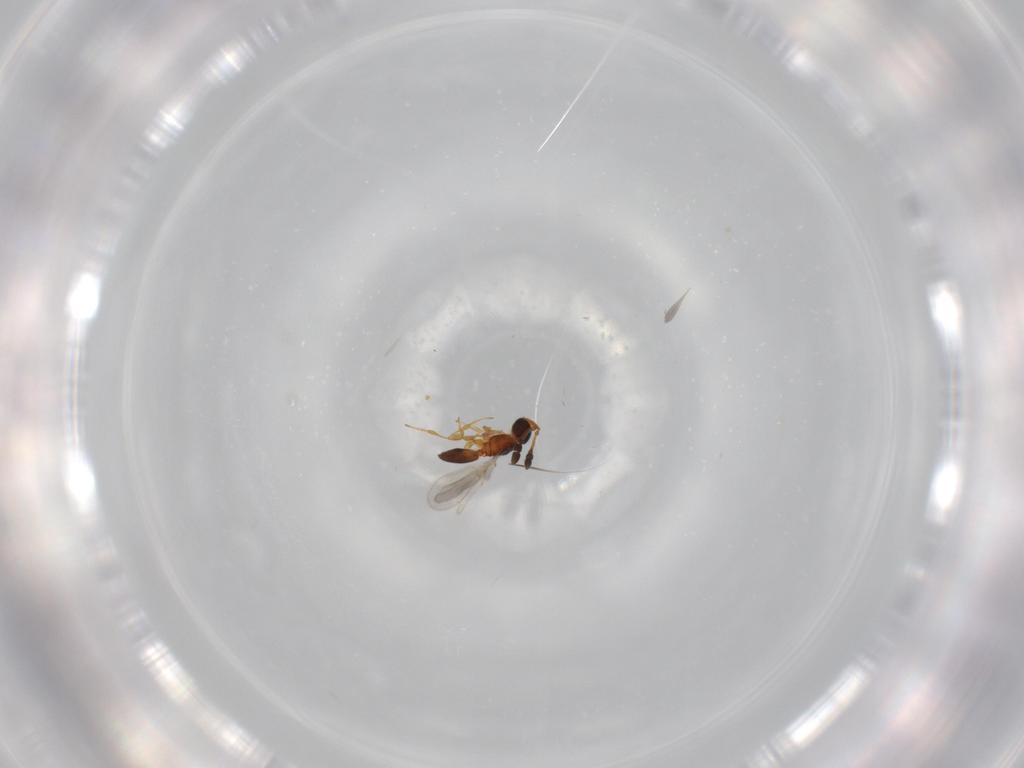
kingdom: Animalia
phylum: Arthropoda
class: Insecta
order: Hymenoptera
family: Diapriidae
